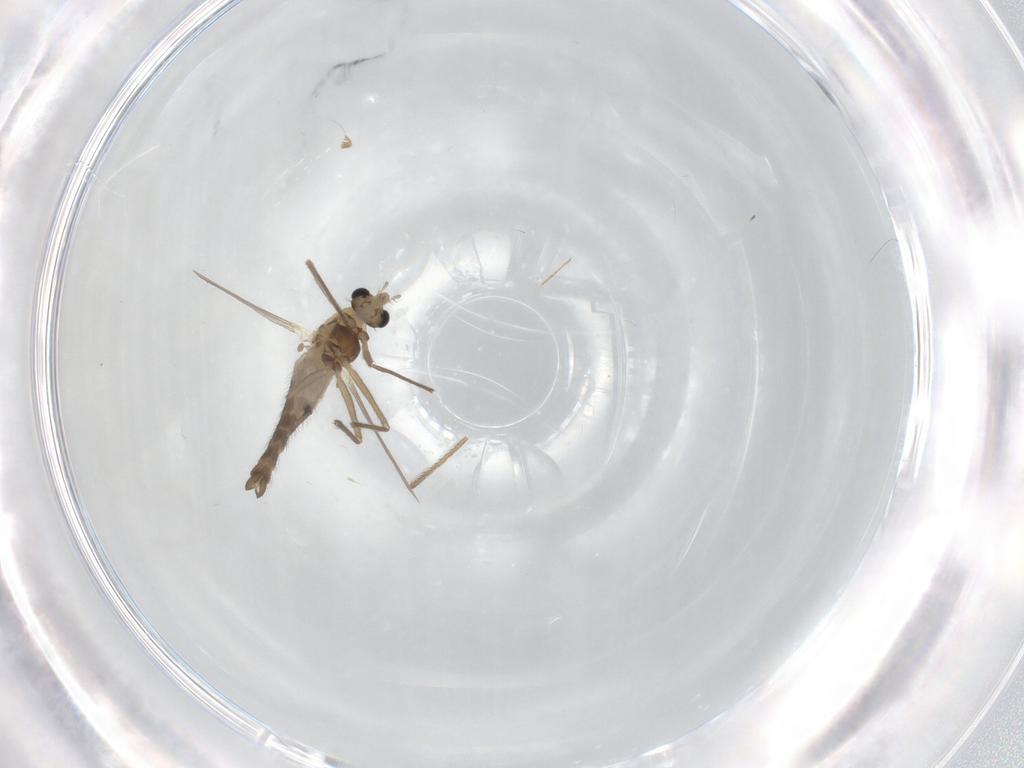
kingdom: Animalia
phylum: Arthropoda
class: Insecta
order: Diptera
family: Chironomidae
